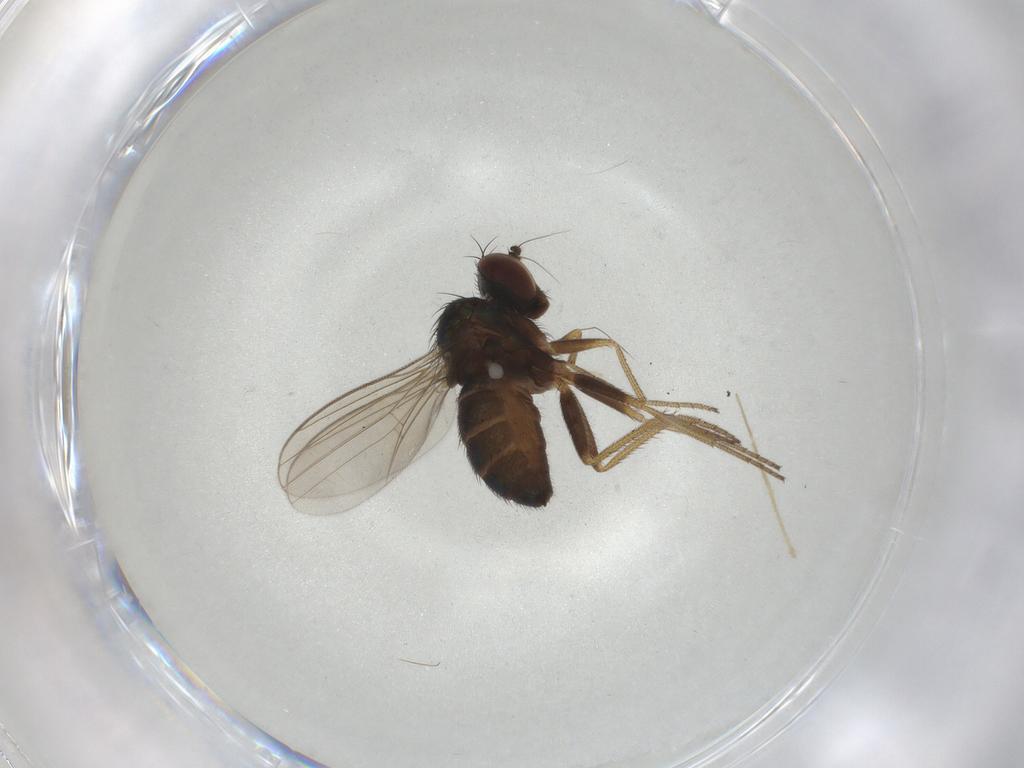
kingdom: Animalia
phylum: Arthropoda
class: Insecta
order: Diptera
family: Chironomidae
